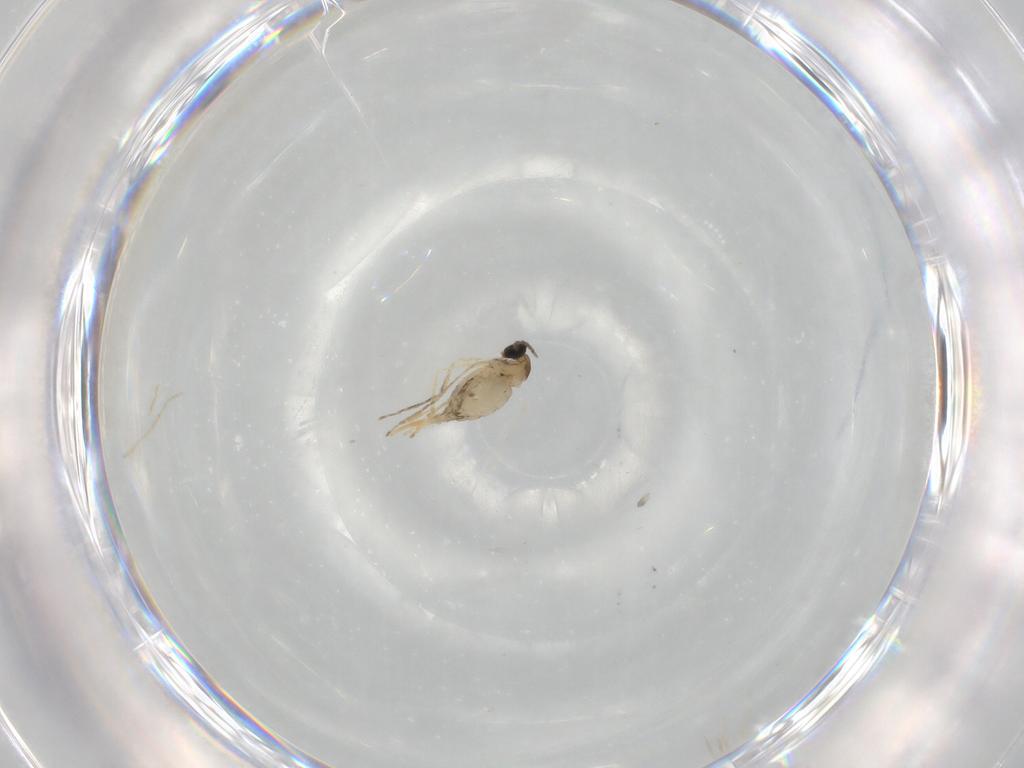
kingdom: Animalia
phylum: Arthropoda
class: Insecta
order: Diptera
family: Cecidomyiidae
